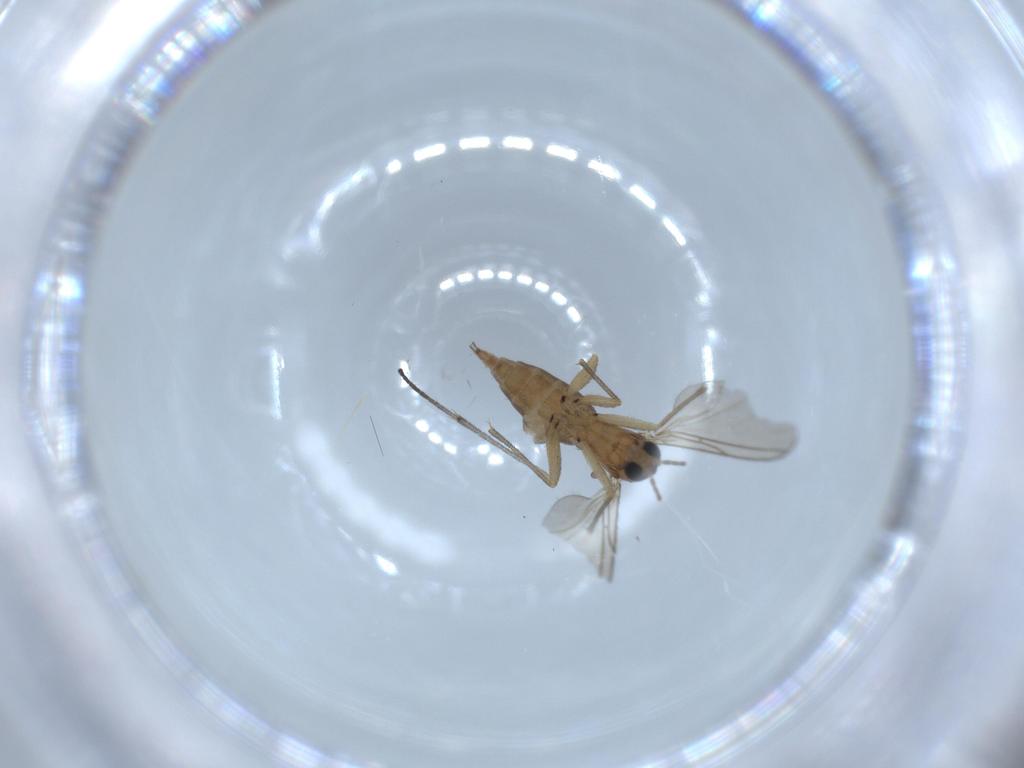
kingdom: Animalia
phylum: Arthropoda
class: Insecta
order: Diptera
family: Sciaridae
